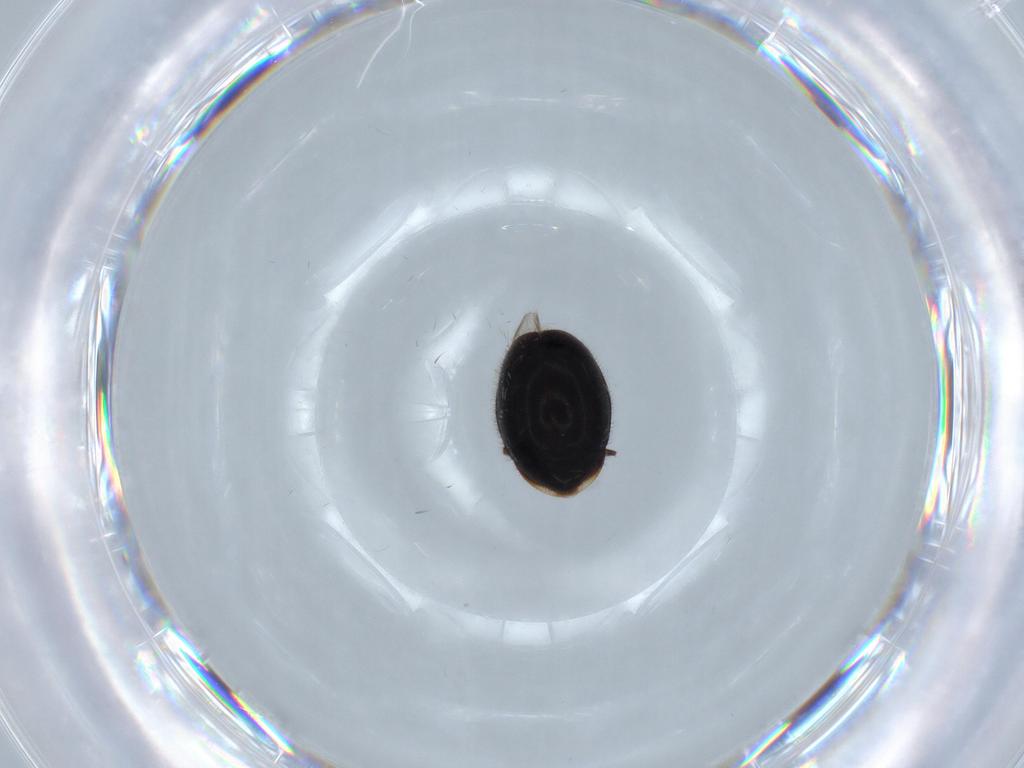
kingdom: Animalia
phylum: Arthropoda
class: Insecta
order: Coleoptera
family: Corylophidae
